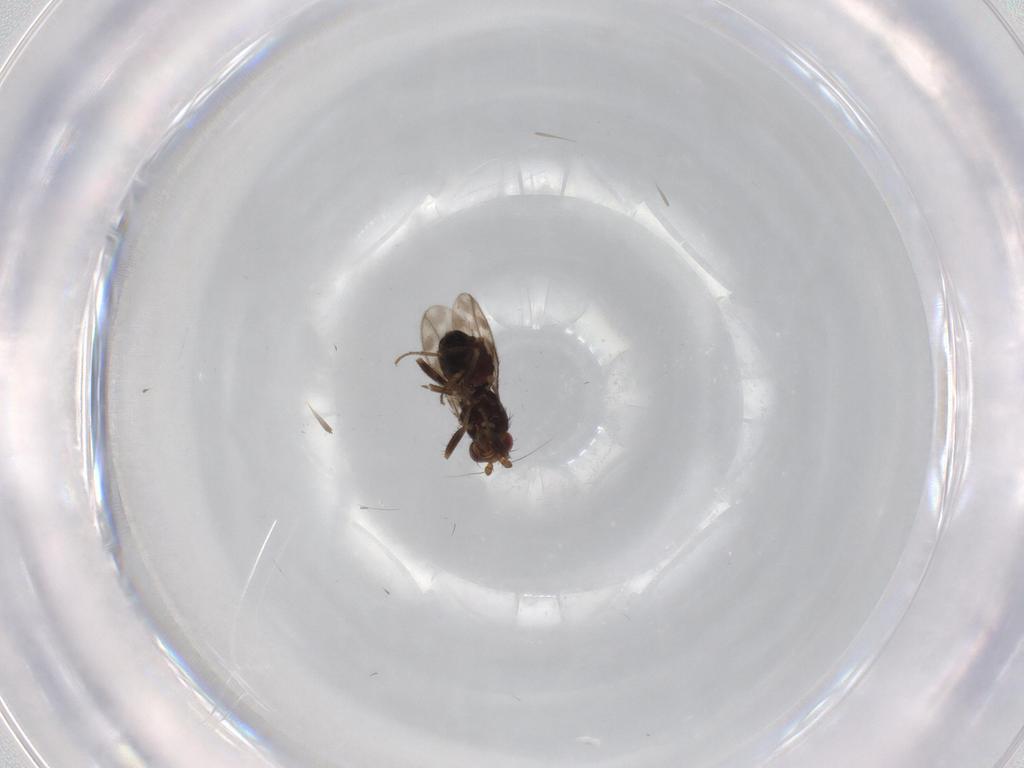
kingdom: Animalia
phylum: Arthropoda
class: Insecta
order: Diptera
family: Sphaeroceridae
